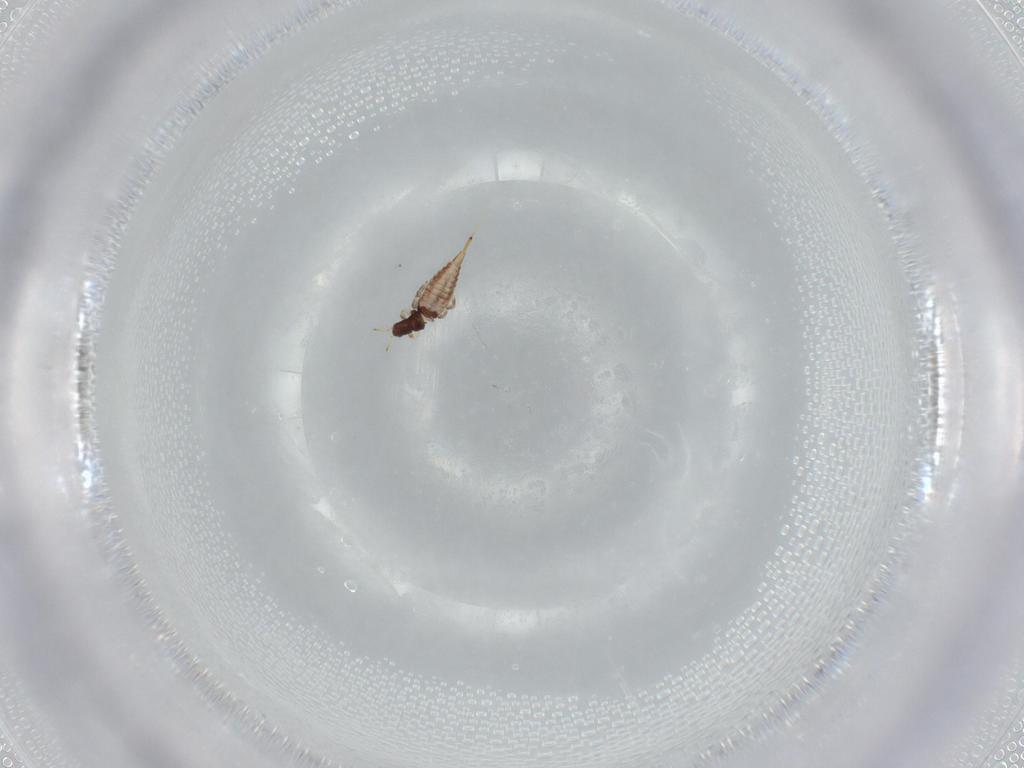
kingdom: Animalia
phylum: Arthropoda
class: Insecta
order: Thysanoptera
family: Phlaeothripidae
